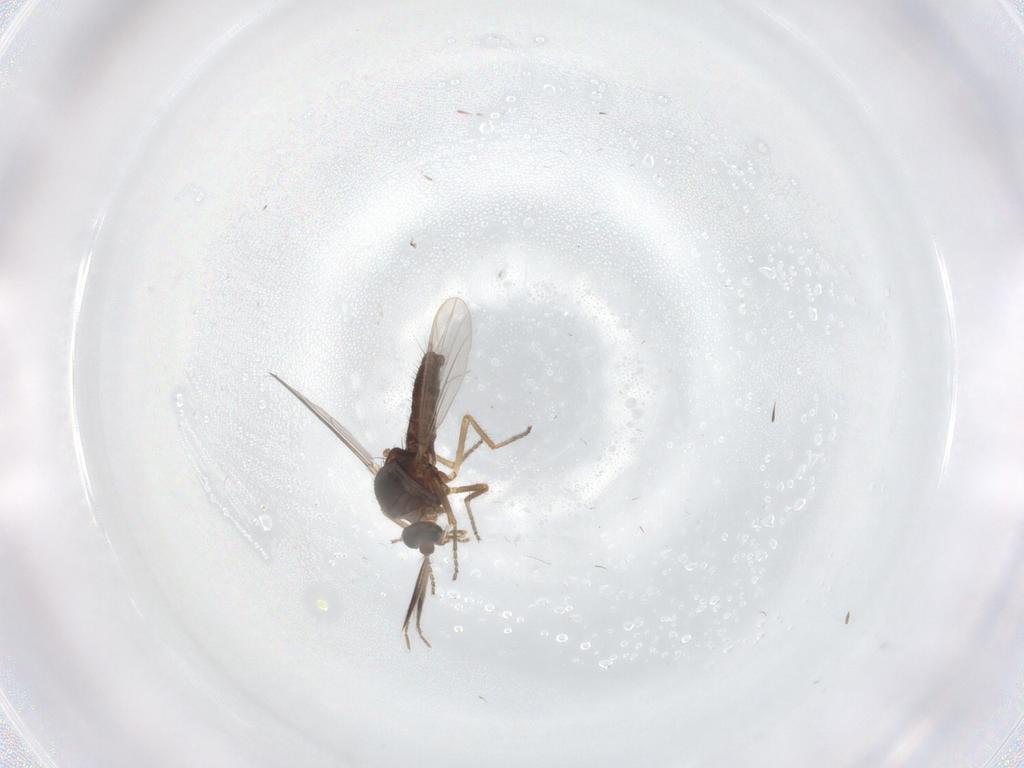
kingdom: Animalia
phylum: Arthropoda
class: Insecta
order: Diptera
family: Ceratopogonidae
